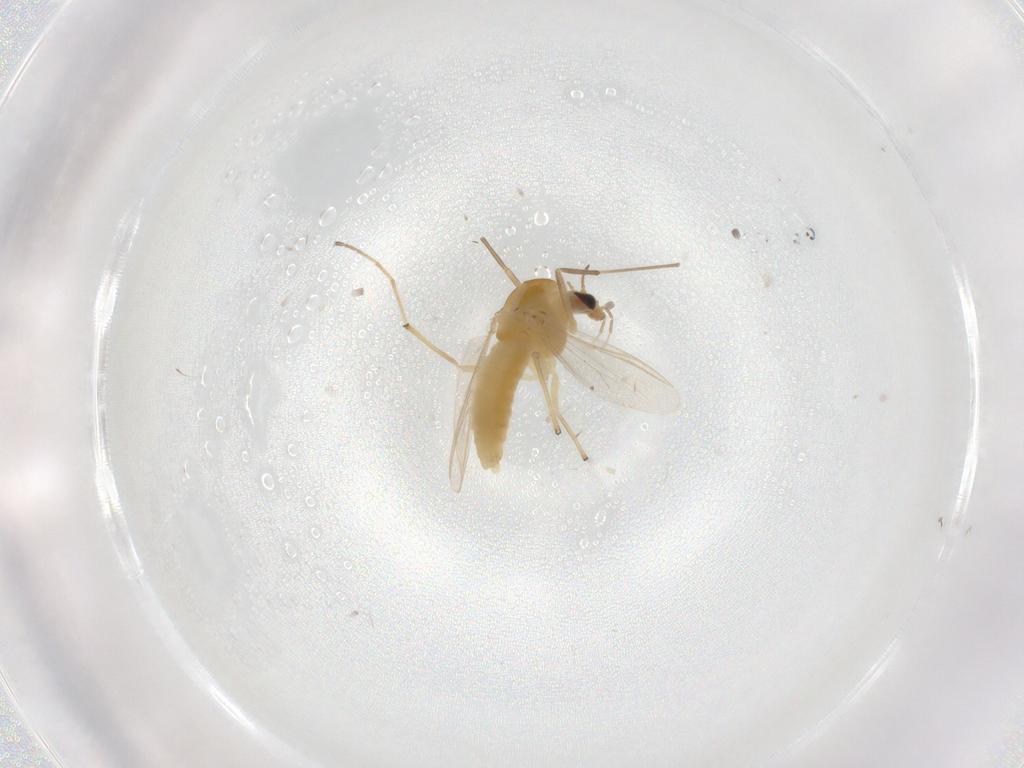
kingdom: Animalia
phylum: Arthropoda
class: Insecta
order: Diptera
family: Chironomidae
